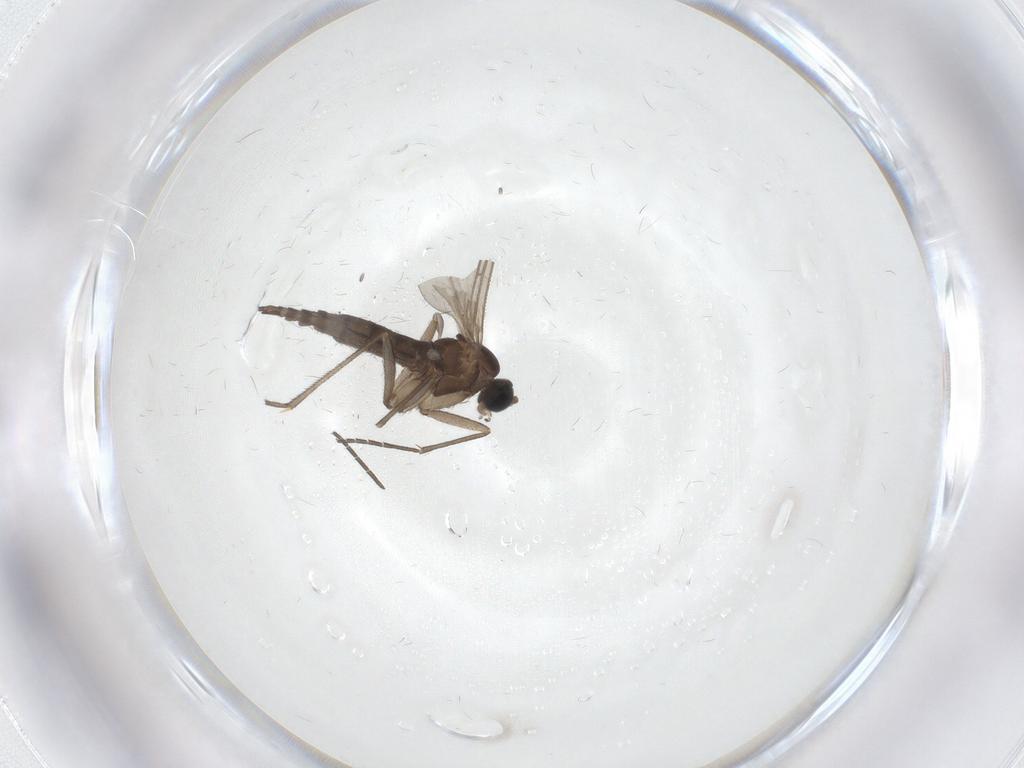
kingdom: Animalia
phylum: Arthropoda
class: Insecta
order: Diptera
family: Sciaridae
